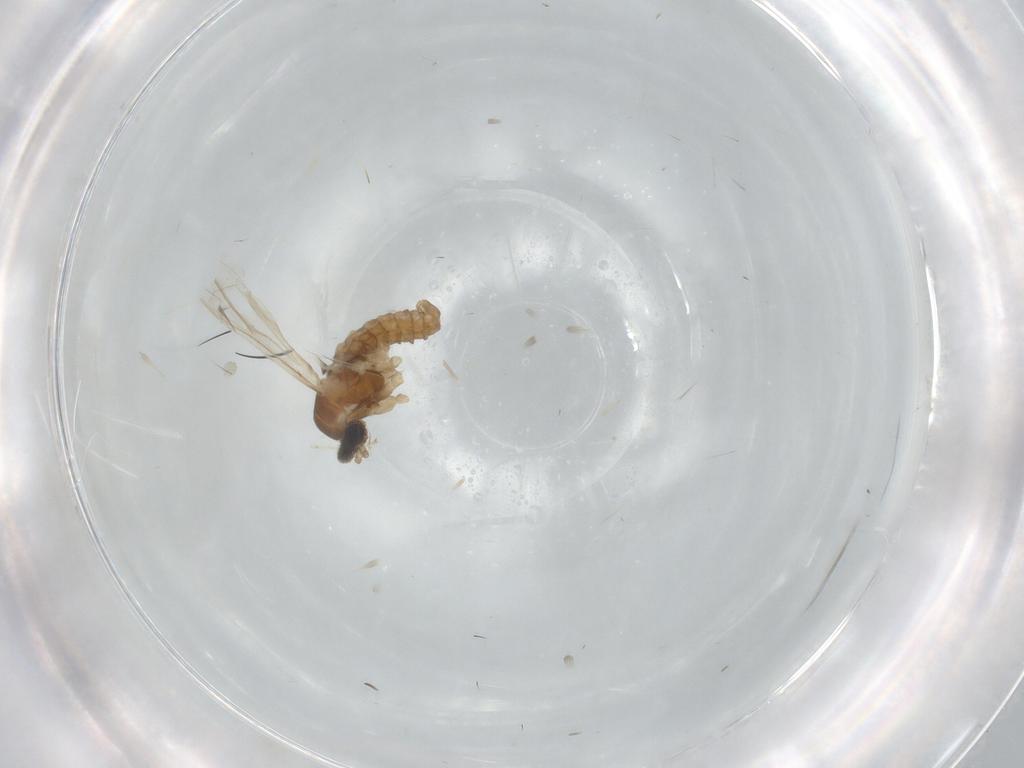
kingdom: Animalia
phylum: Arthropoda
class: Insecta
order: Diptera
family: Cecidomyiidae
